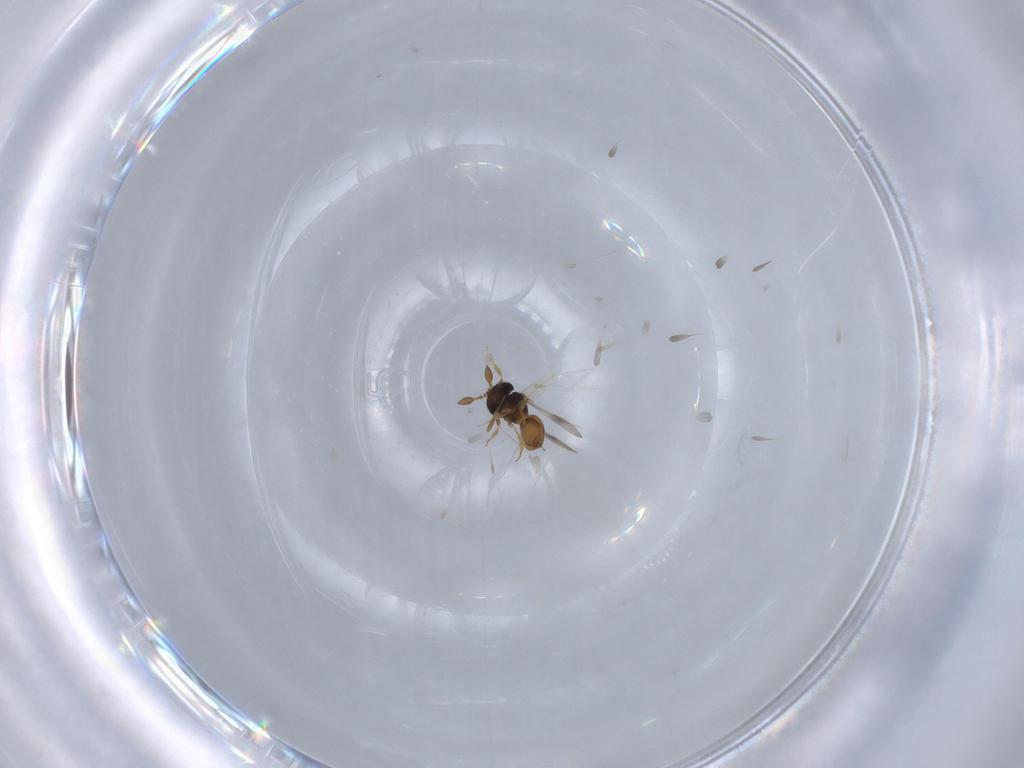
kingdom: Animalia
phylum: Arthropoda
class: Insecta
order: Hymenoptera
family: Scelionidae
